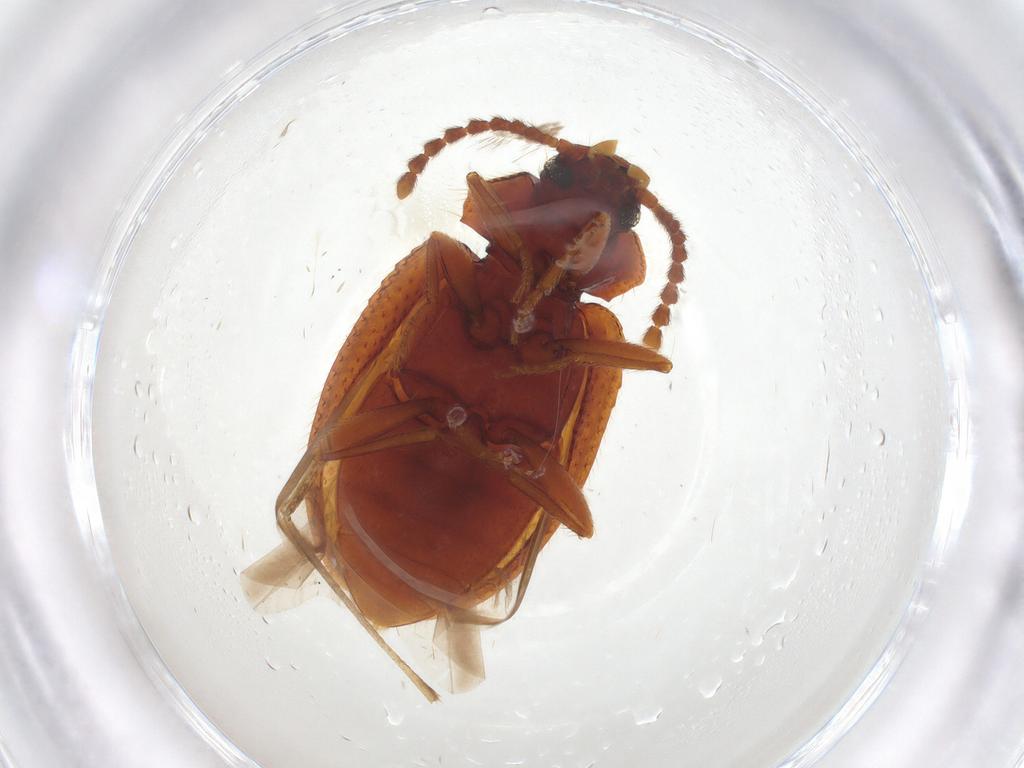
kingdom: Animalia
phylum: Arthropoda
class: Insecta
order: Coleoptera
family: Tenebrionidae
